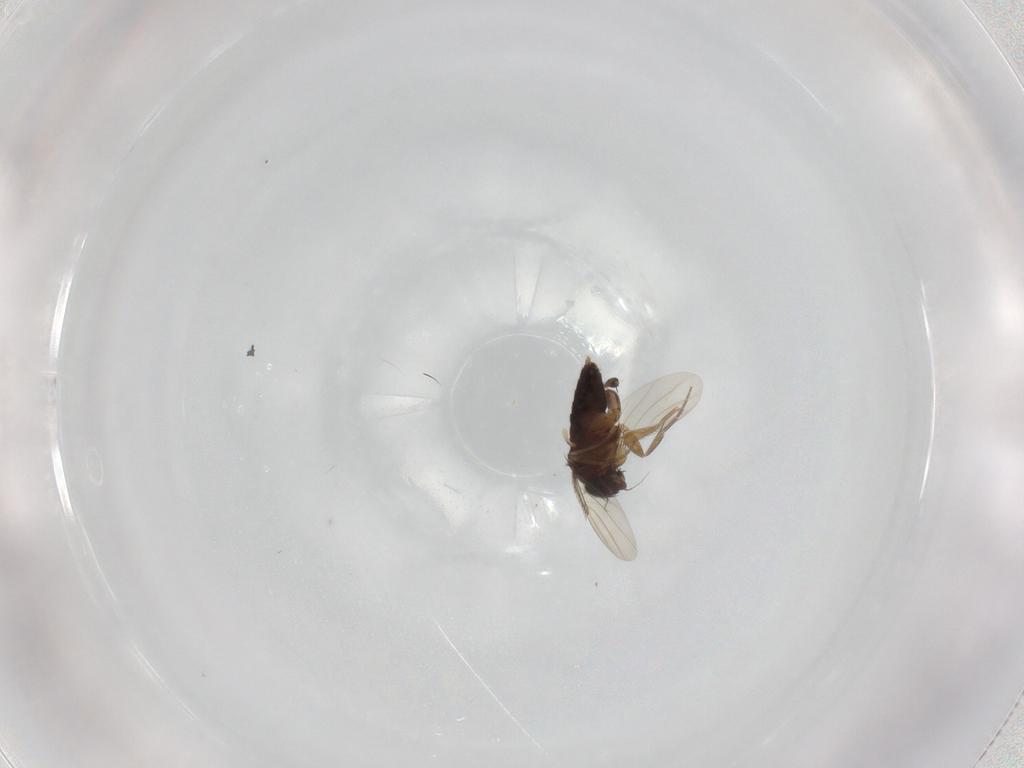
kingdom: Animalia
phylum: Arthropoda
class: Insecta
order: Diptera
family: Phoridae
